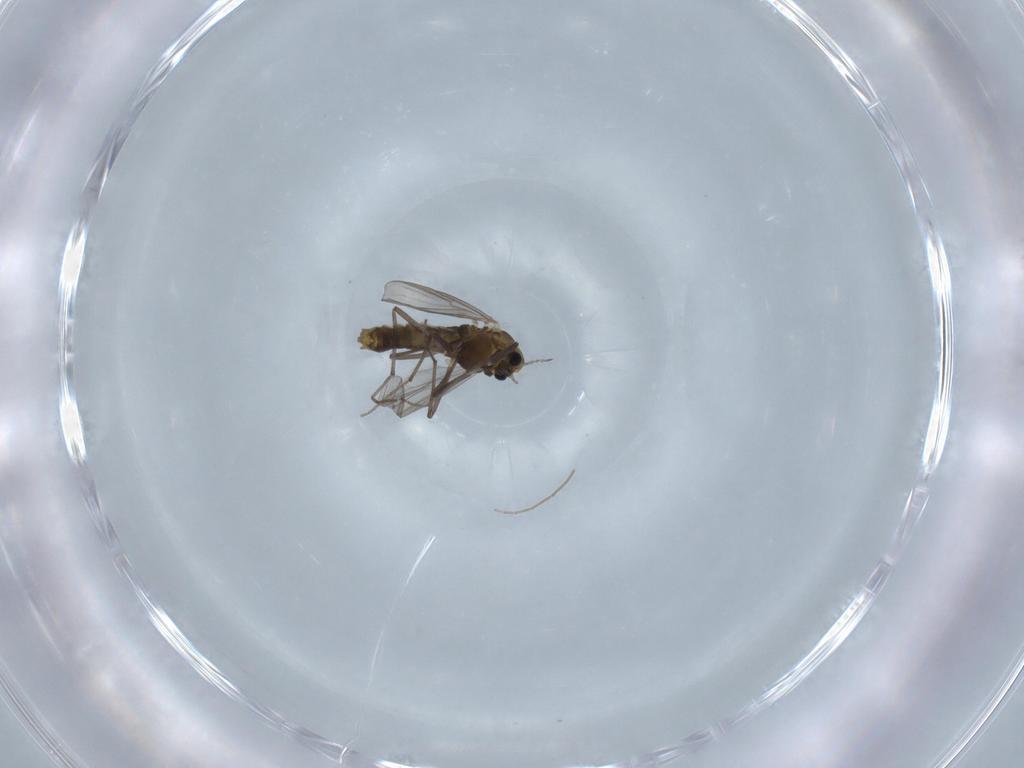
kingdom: Animalia
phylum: Arthropoda
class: Insecta
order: Diptera
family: Chironomidae
